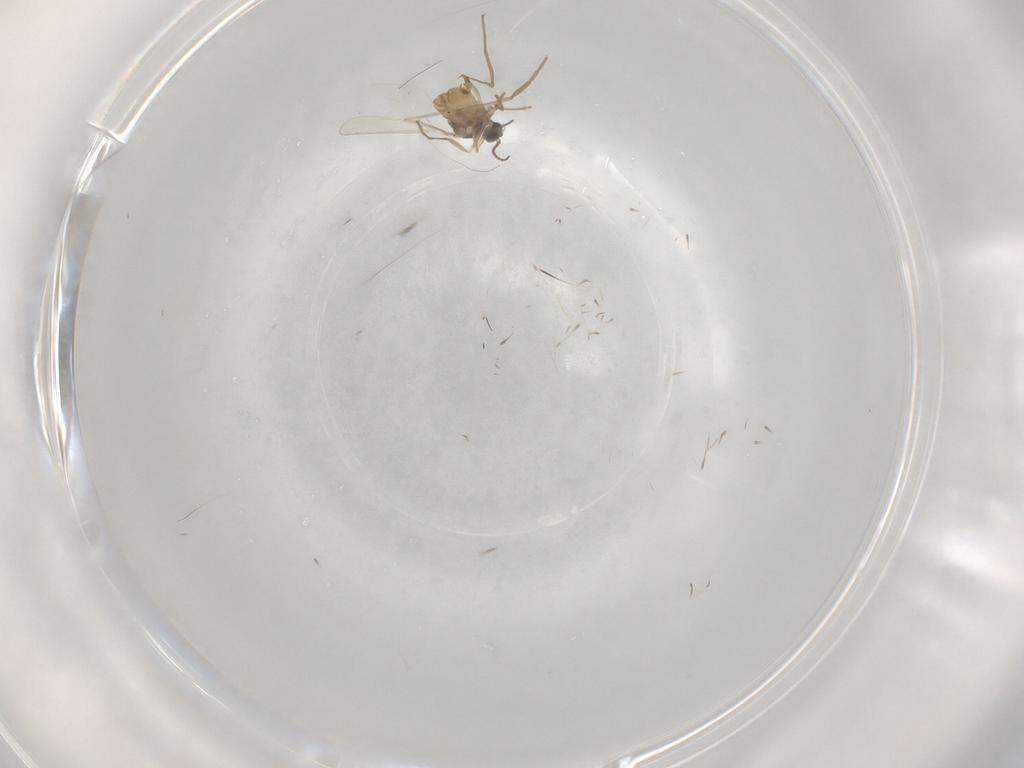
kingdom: Animalia
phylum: Arthropoda
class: Insecta
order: Diptera
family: Cecidomyiidae
